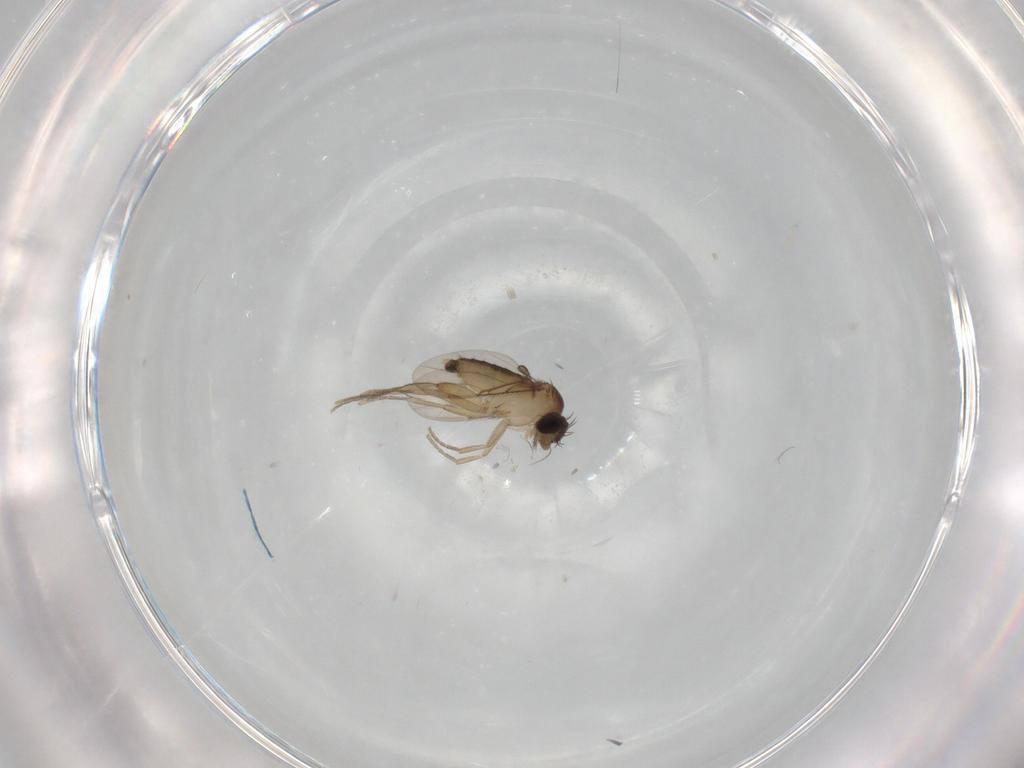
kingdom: Animalia
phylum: Arthropoda
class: Insecta
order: Diptera
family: Phoridae
